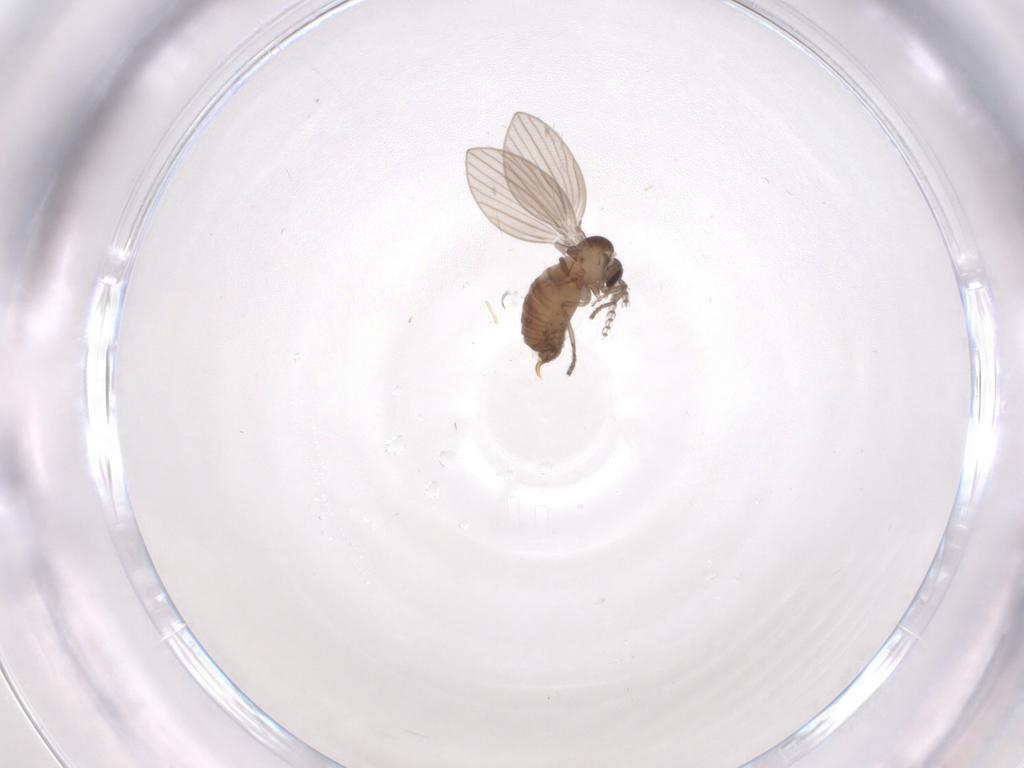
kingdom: Animalia
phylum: Arthropoda
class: Insecta
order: Diptera
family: Psychodidae
